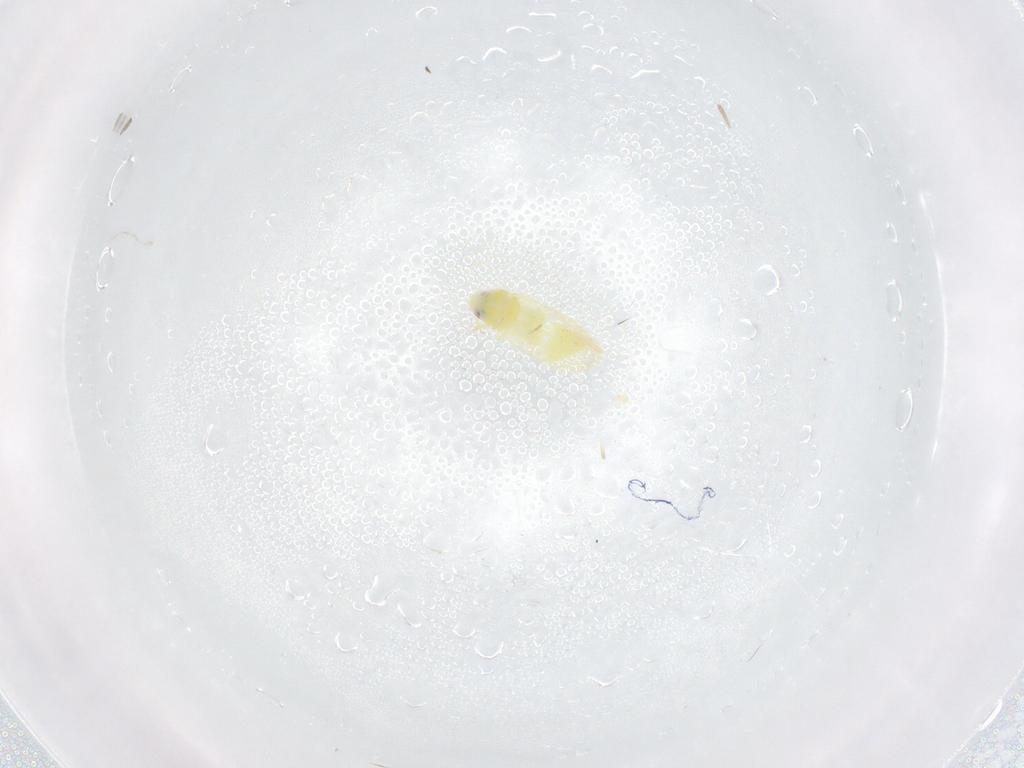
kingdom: Animalia
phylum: Arthropoda
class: Insecta
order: Hemiptera
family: Aleyrodidae
